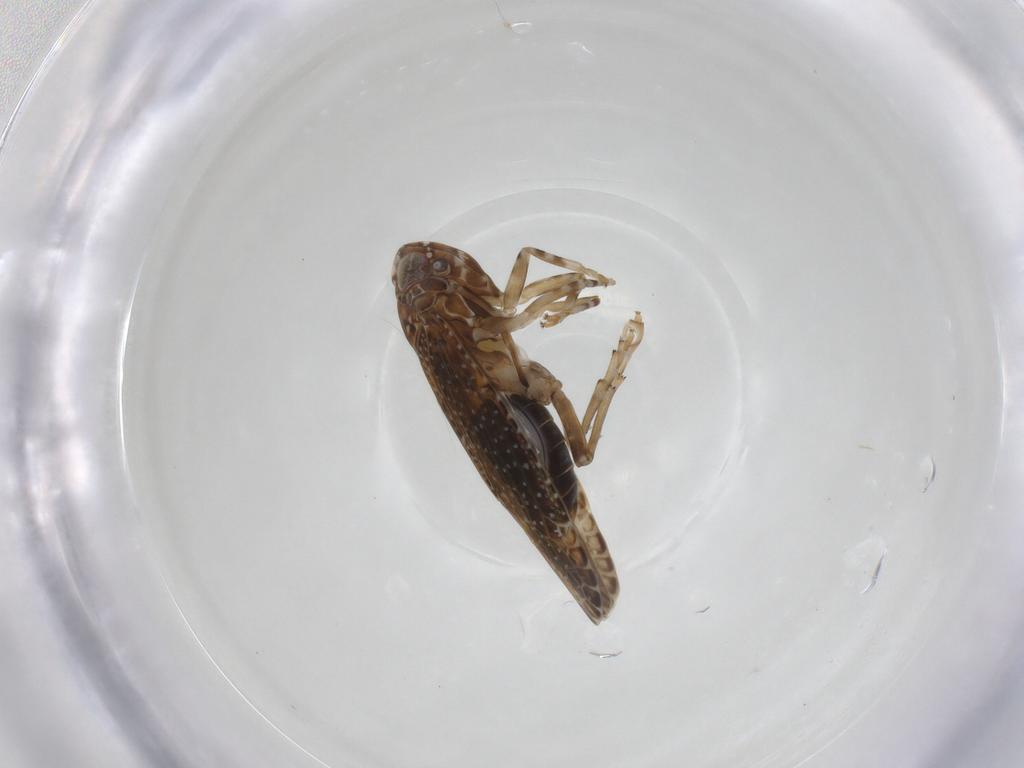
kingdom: Animalia
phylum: Arthropoda
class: Insecta
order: Hemiptera
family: Achilidae
